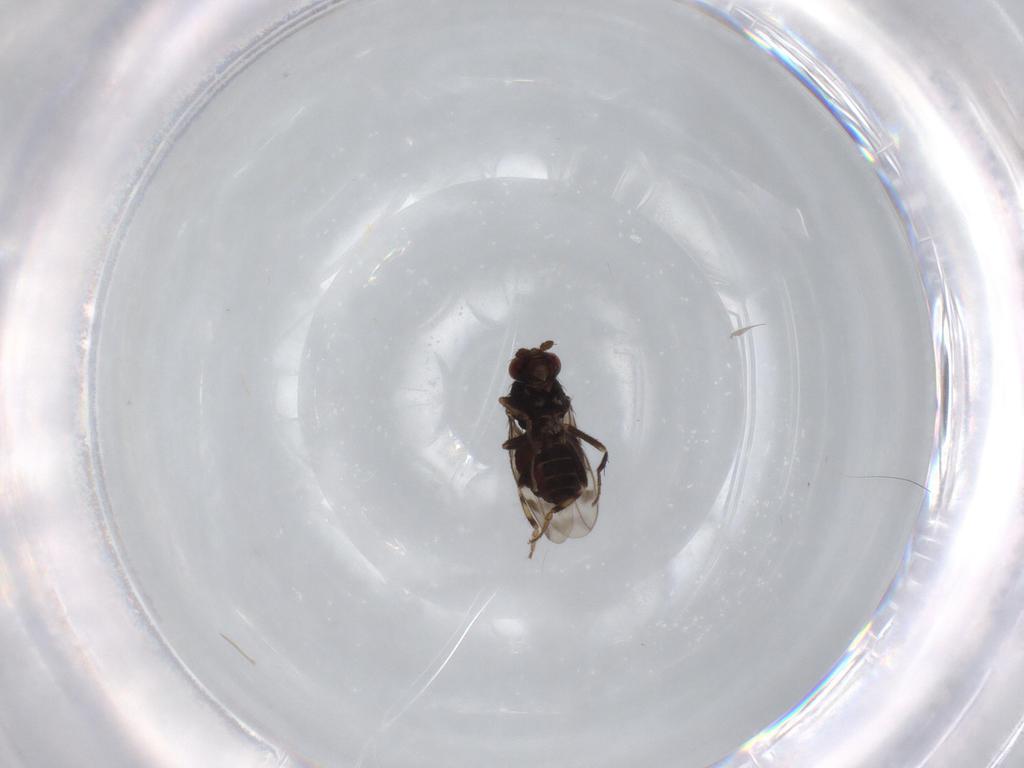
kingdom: Animalia
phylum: Arthropoda
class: Insecta
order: Diptera
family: Sphaeroceridae
